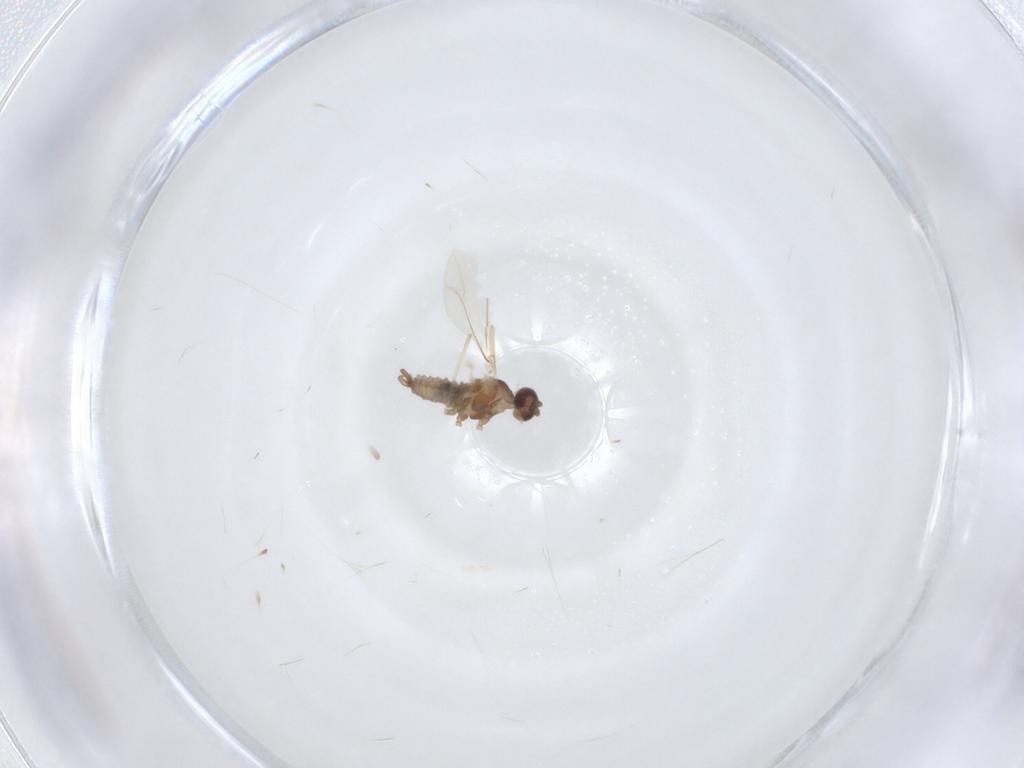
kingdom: Animalia
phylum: Arthropoda
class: Insecta
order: Diptera
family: Cecidomyiidae
